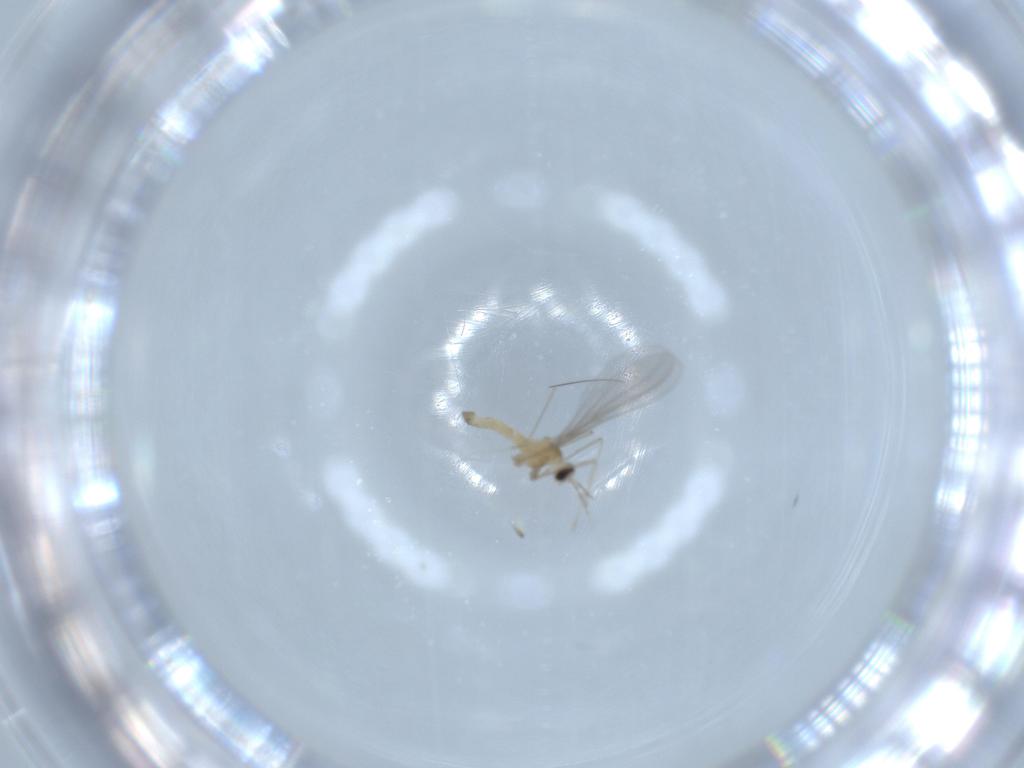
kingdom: Animalia
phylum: Arthropoda
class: Insecta
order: Diptera
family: Cecidomyiidae
